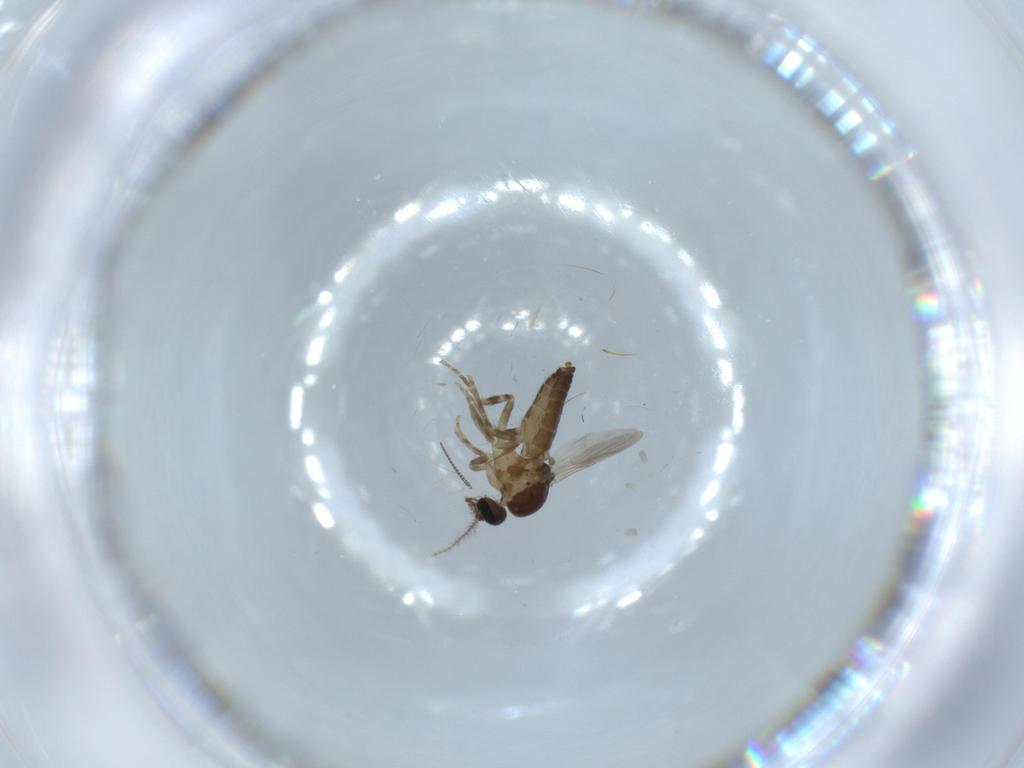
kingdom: Animalia
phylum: Arthropoda
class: Insecta
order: Diptera
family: Ceratopogonidae
